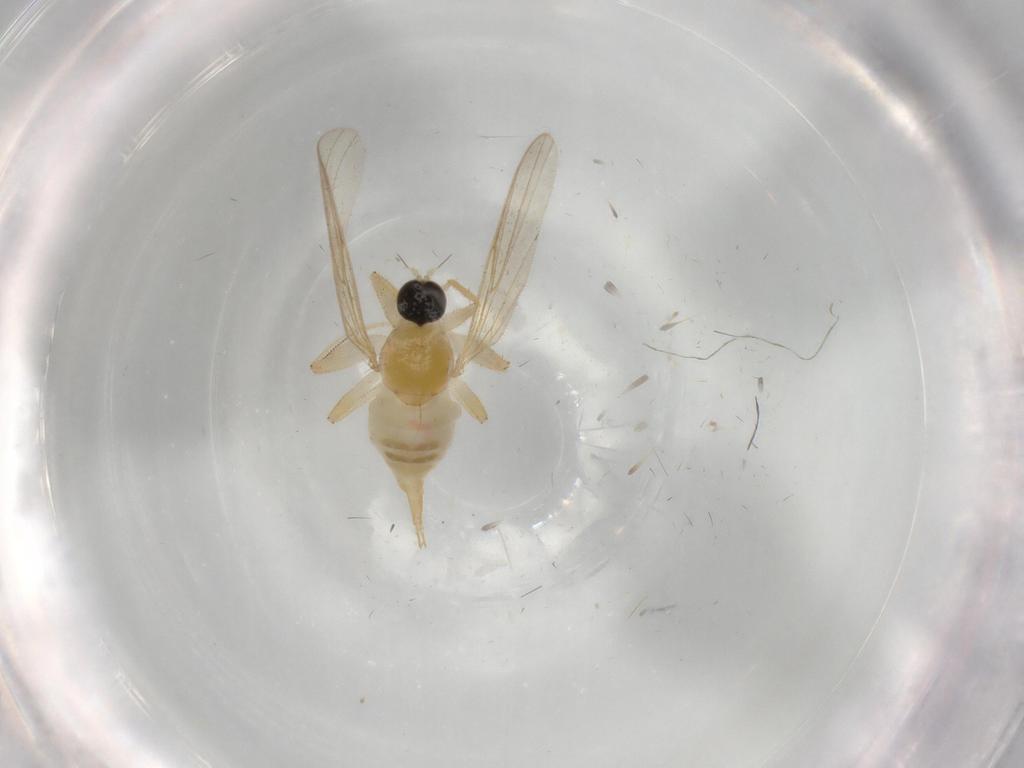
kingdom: Animalia
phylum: Arthropoda
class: Insecta
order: Diptera
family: Hybotidae
